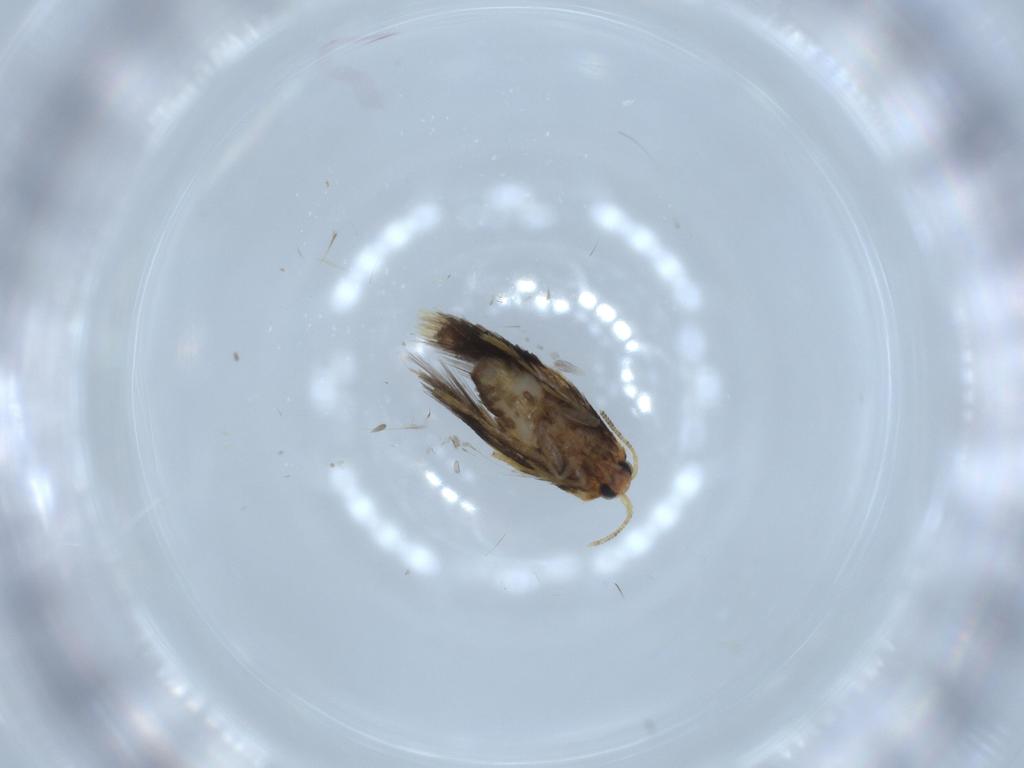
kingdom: Animalia
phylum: Arthropoda
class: Insecta
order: Lepidoptera
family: Nepticulidae
